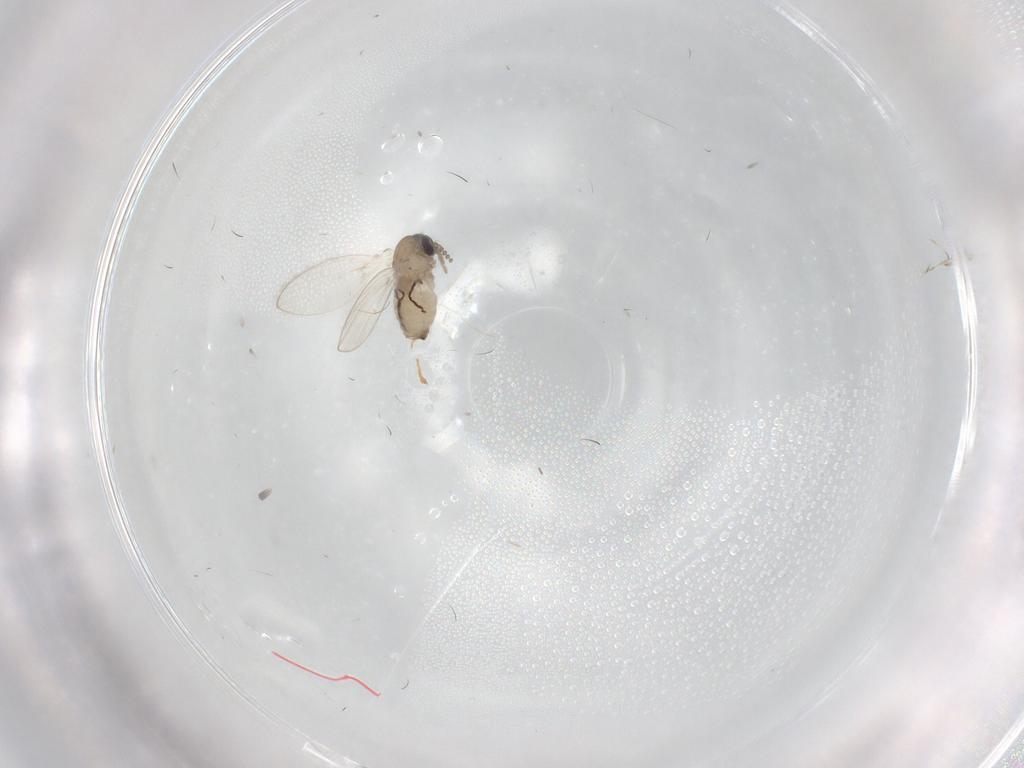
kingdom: Animalia
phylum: Arthropoda
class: Insecta
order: Diptera
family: Psychodidae
